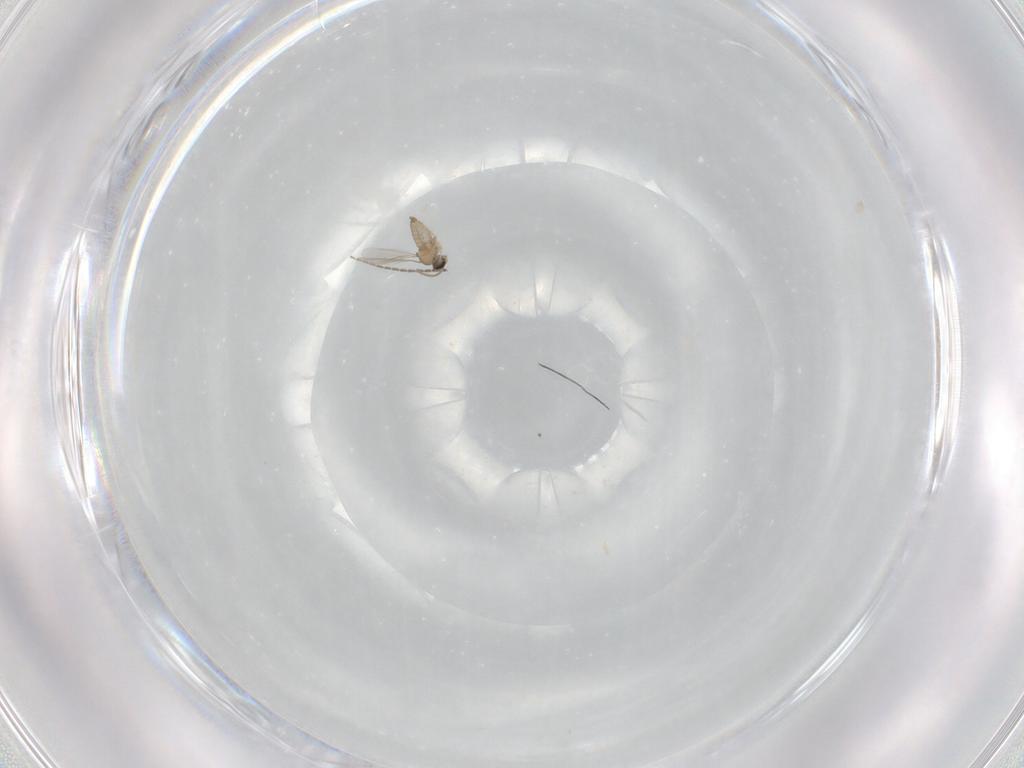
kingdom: Animalia
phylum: Arthropoda
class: Insecta
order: Diptera
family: Cecidomyiidae
